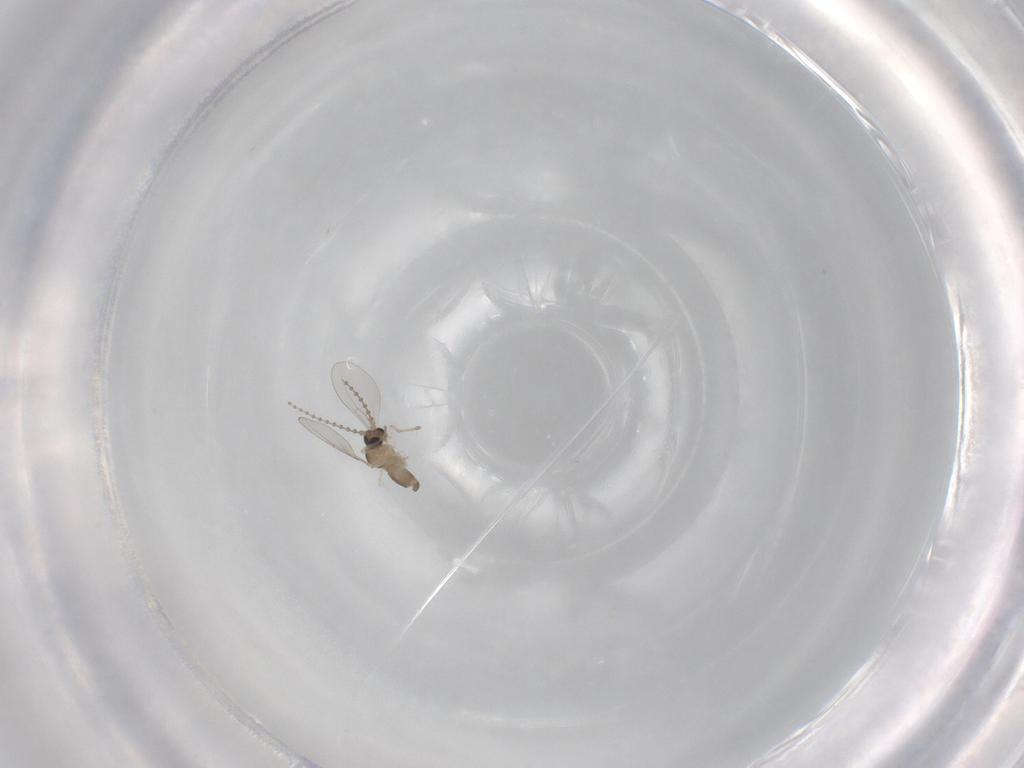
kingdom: Animalia
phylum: Arthropoda
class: Insecta
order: Diptera
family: Cecidomyiidae
